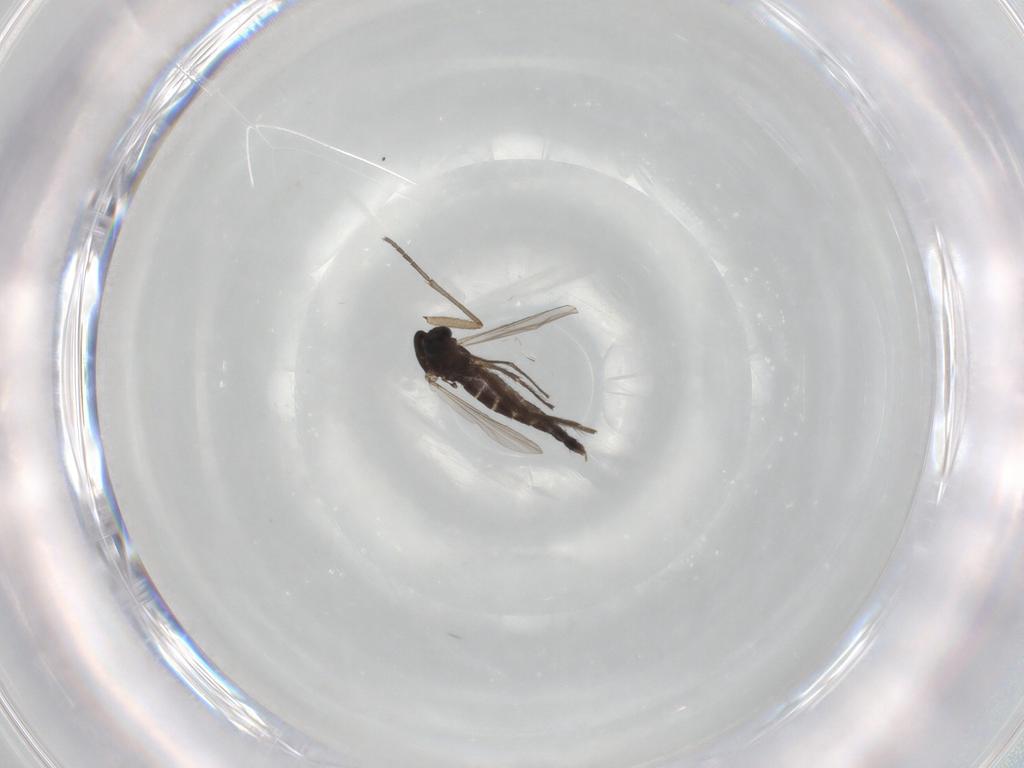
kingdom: Animalia
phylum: Arthropoda
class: Insecta
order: Diptera
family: Chironomidae
